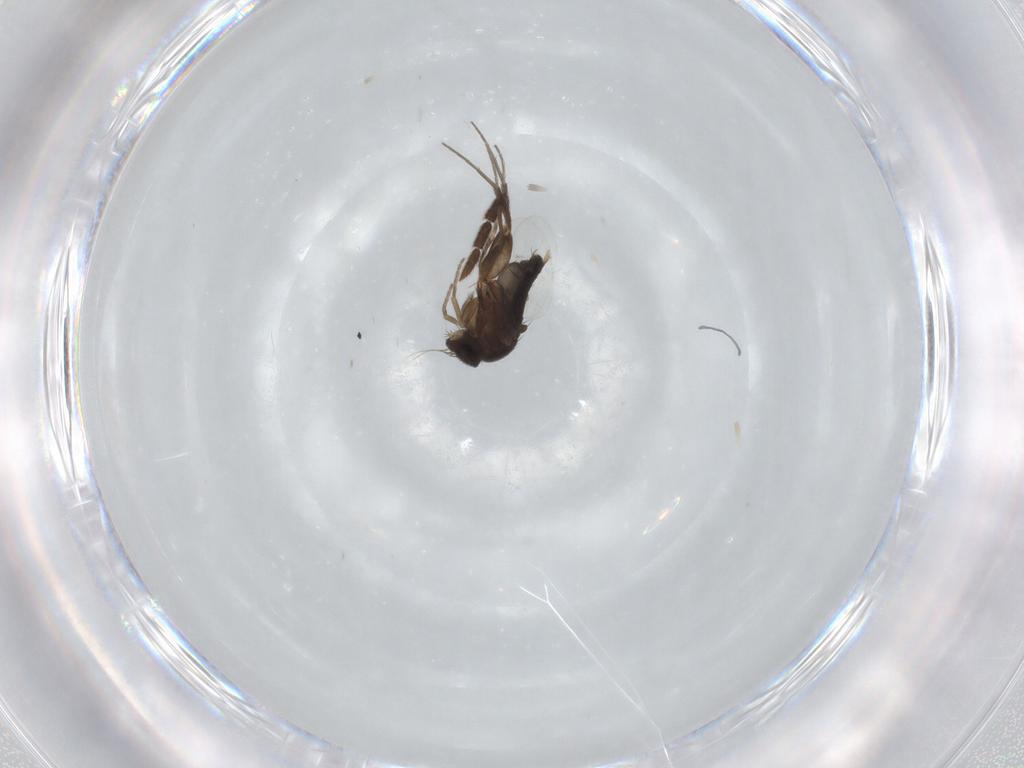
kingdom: Animalia
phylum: Arthropoda
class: Insecta
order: Diptera
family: Phoridae
